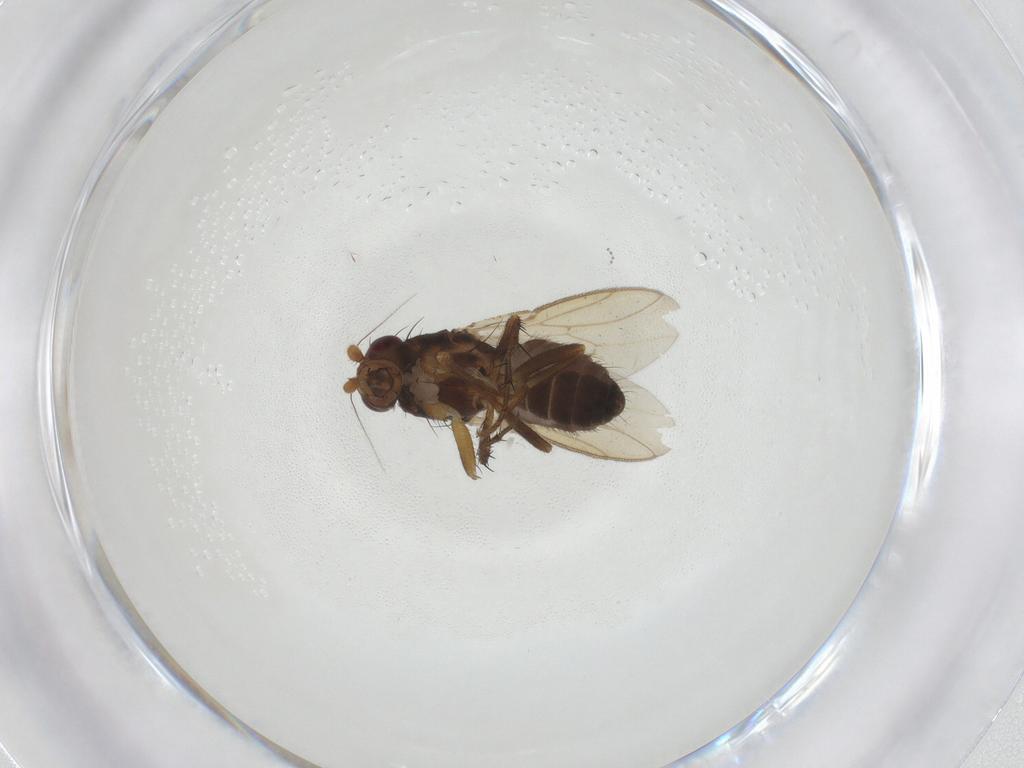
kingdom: Animalia
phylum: Arthropoda
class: Insecta
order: Diptera
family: Sphaeroceridae
